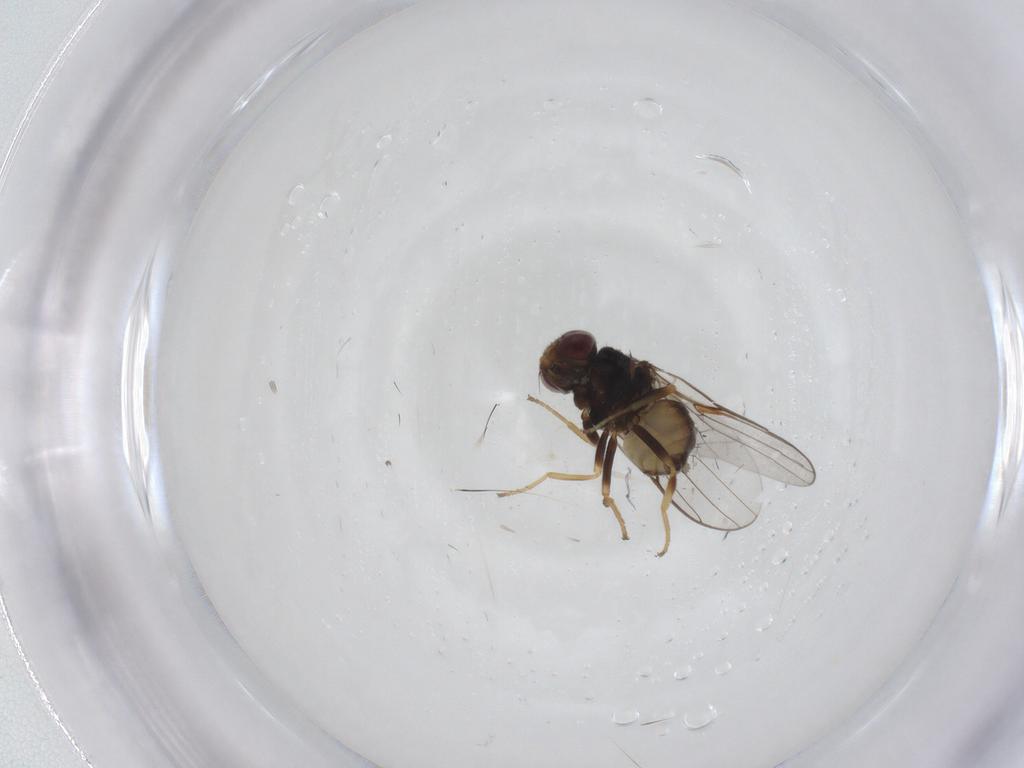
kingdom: Animalia
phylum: Arthropoda
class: Insecta
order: Diptera
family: Chloropidae
